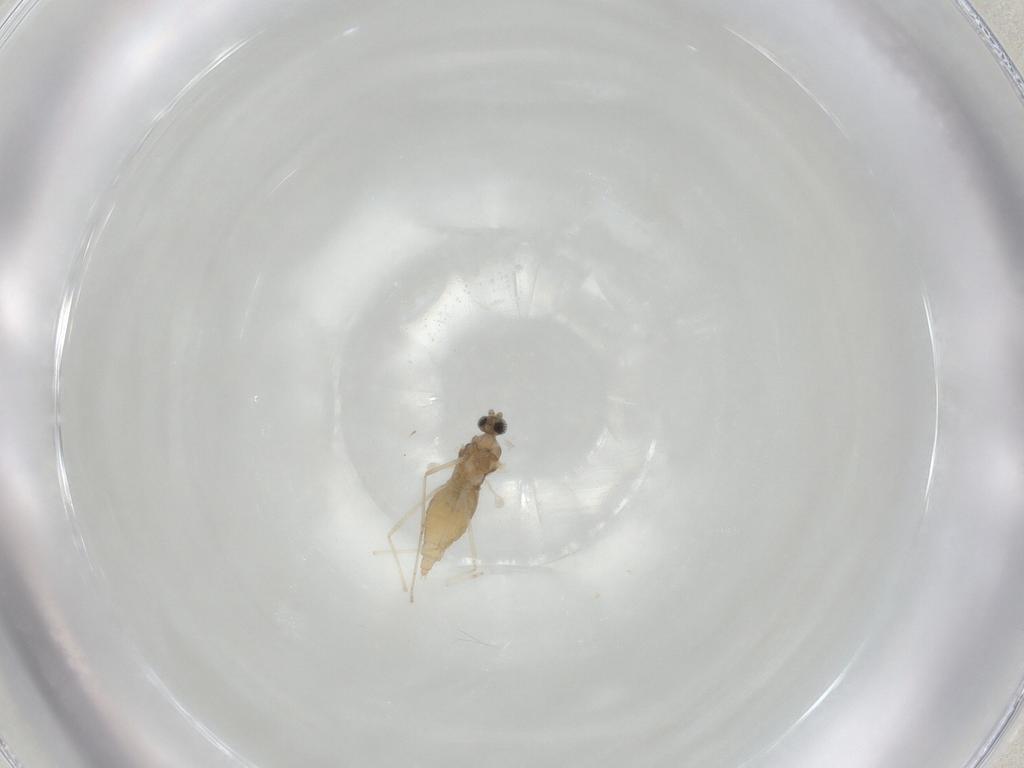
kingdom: Animalia
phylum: Arthropoda
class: Insecta
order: Diptera
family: Cecidomyiidae
